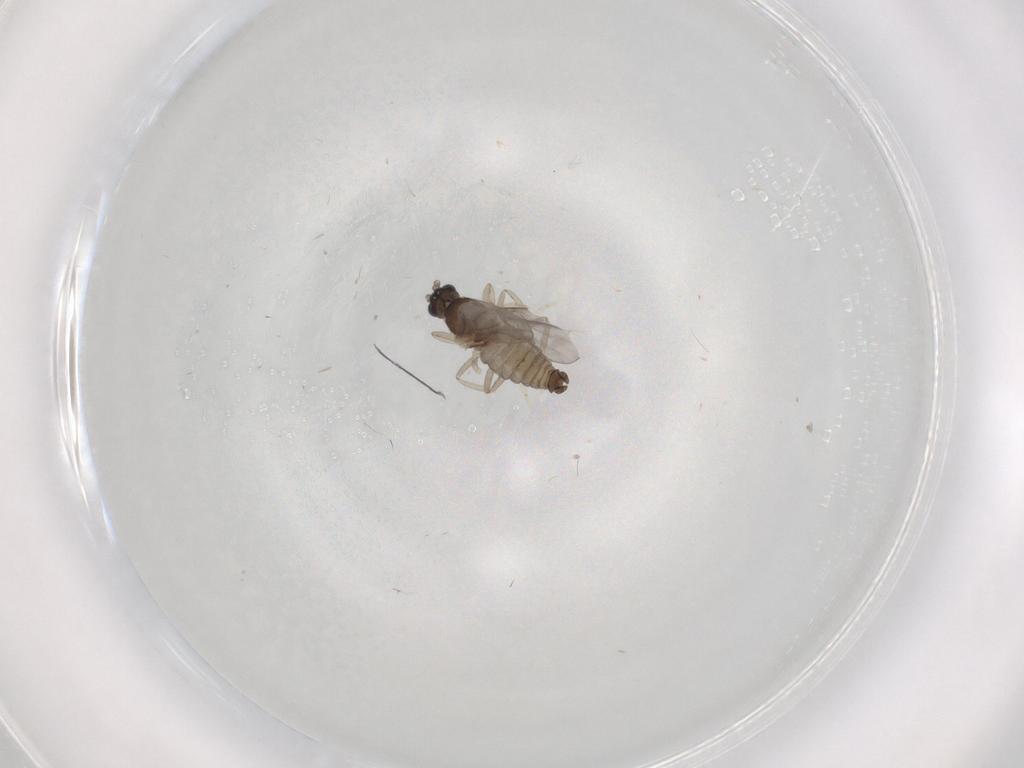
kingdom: Animalia
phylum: Arthropoda
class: Insecta
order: Diptera
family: Cecidomyiidae
